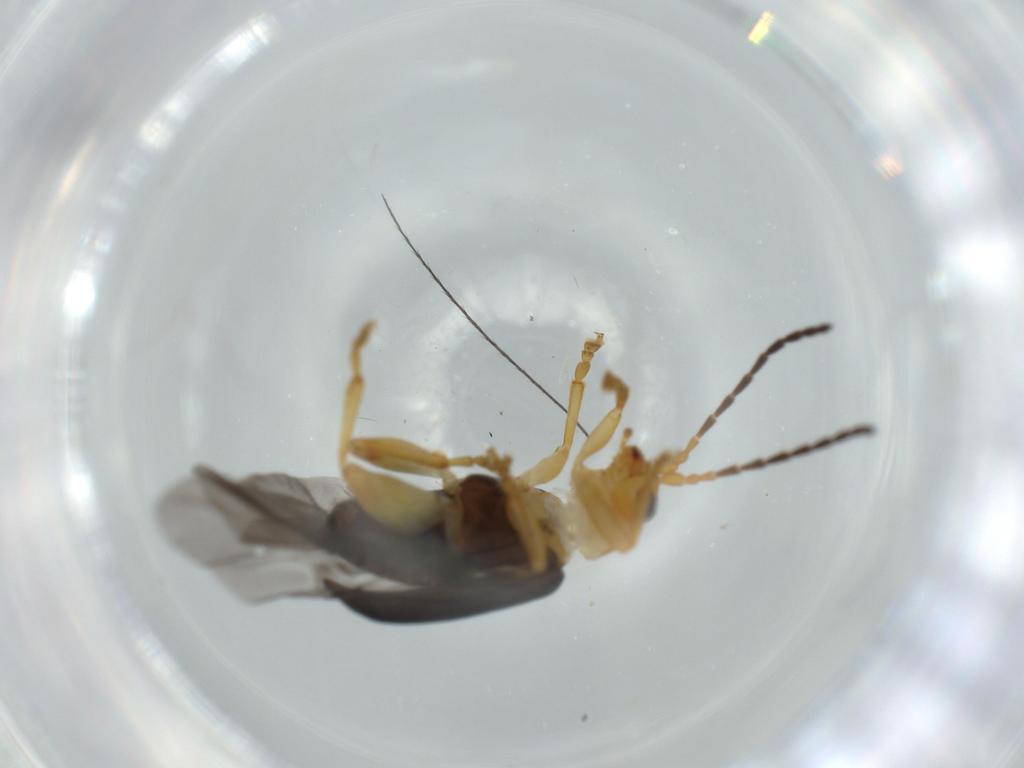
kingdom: Animalia
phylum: Arthropoda
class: Insecta
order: Coleoptera
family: Chrysomelidae
